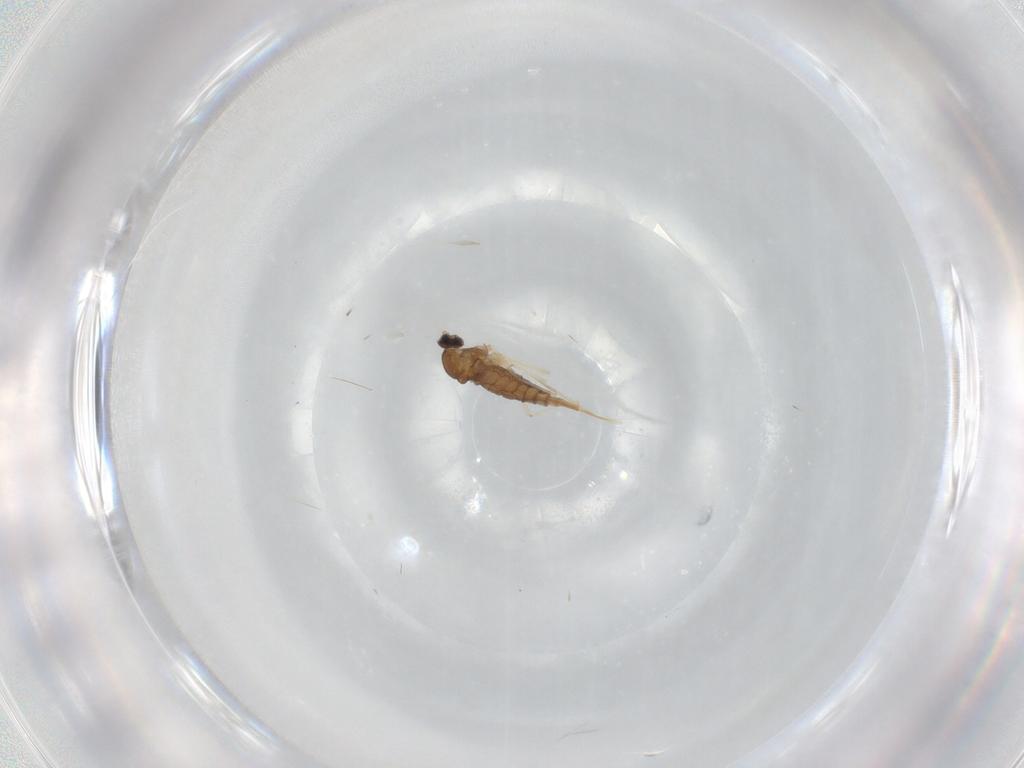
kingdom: Animalia
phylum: Arthropoda
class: Insecta
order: Diptera
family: Cecidomyiidae
